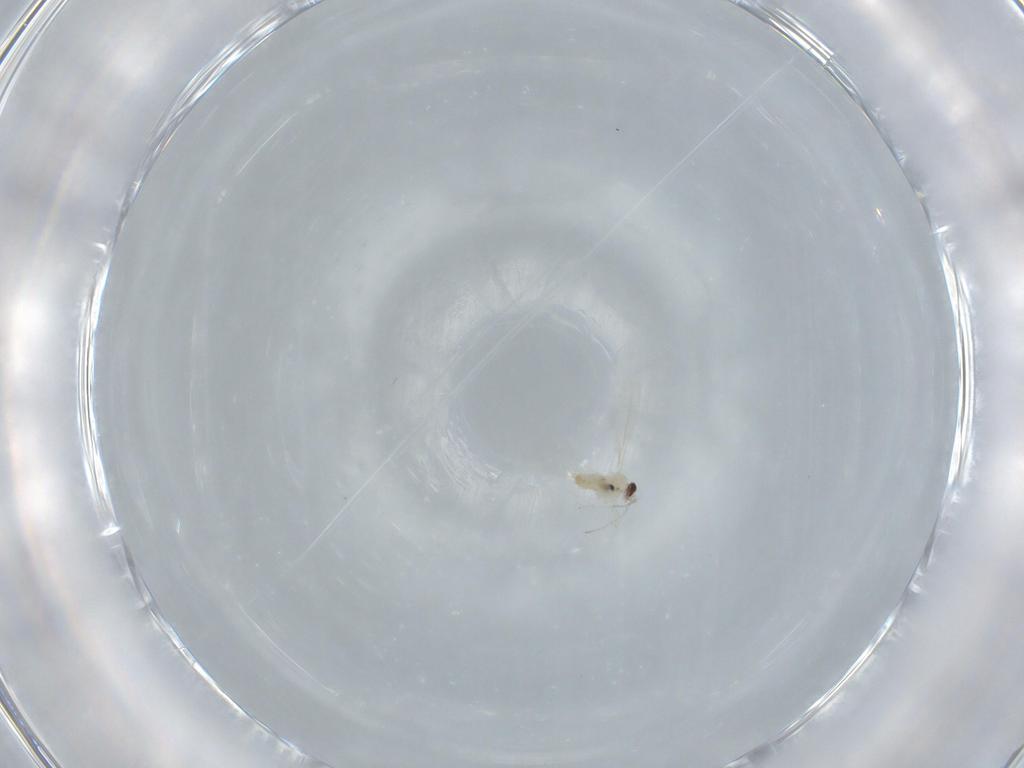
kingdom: Animalia
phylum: Arthropoda
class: Insecta
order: Diptera
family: Cecidomyiidae
